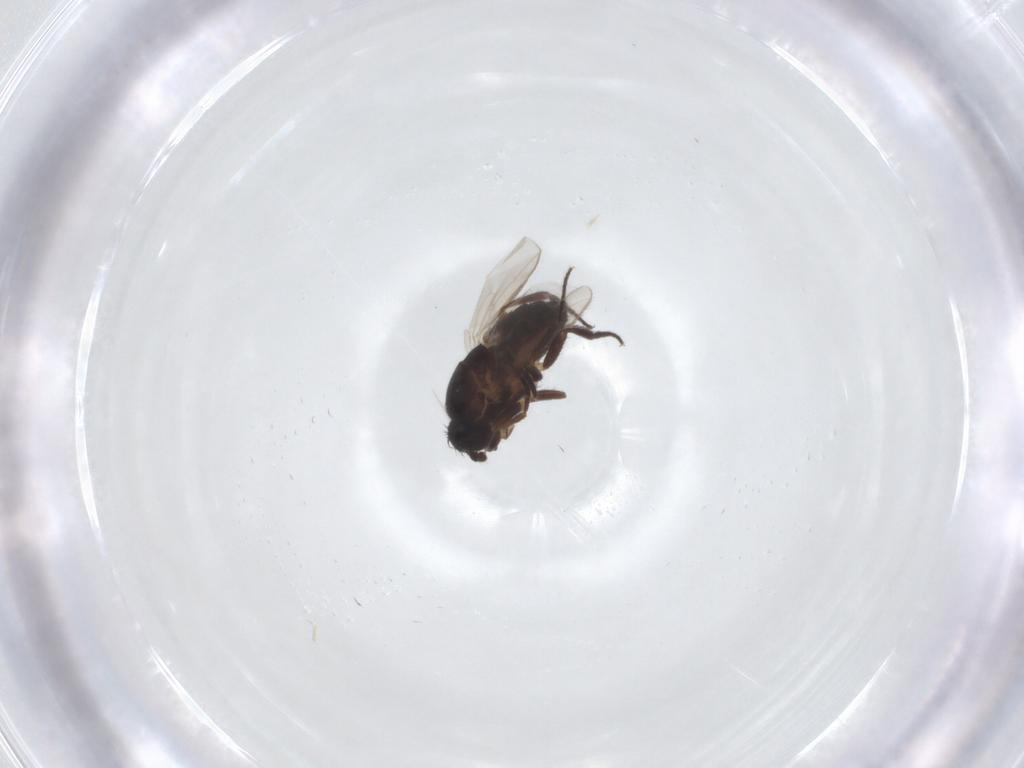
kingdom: Animalia
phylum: Arthropoda
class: Insecta
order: Diptera
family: Sphaeroceridae
